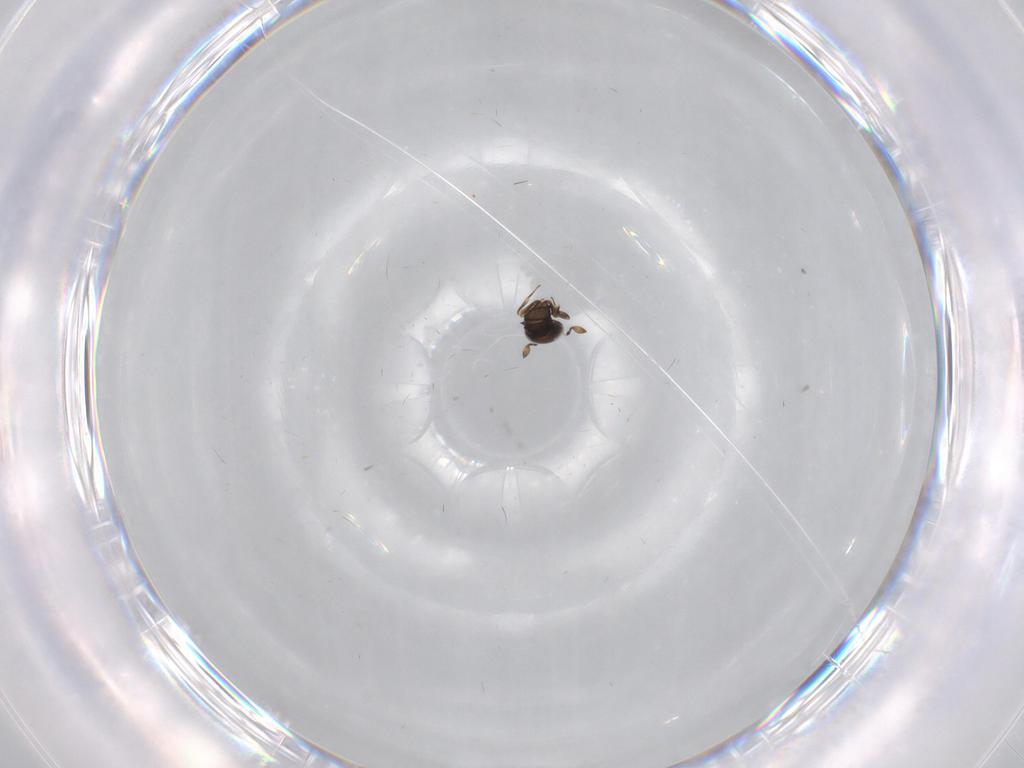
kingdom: Animalia
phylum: Arthropoda
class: Insecta
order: Hymenoptera
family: Scelionidae
